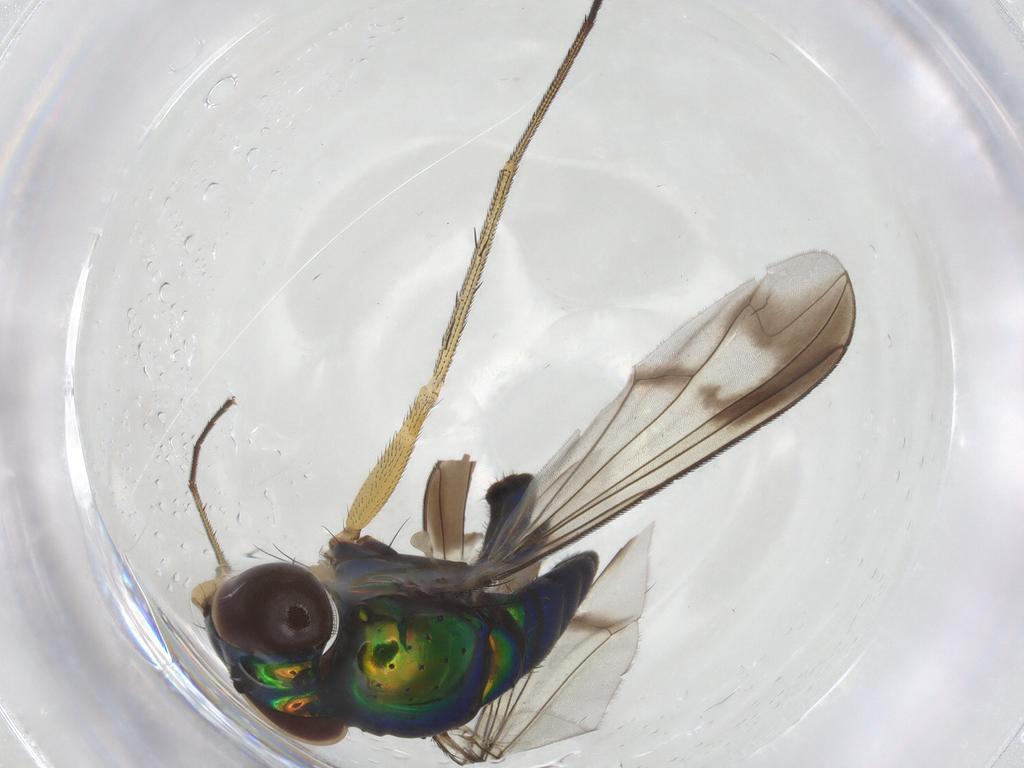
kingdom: Animalia
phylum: Arthropoda
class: Insecta
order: Diptera
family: Dolichopodidae
